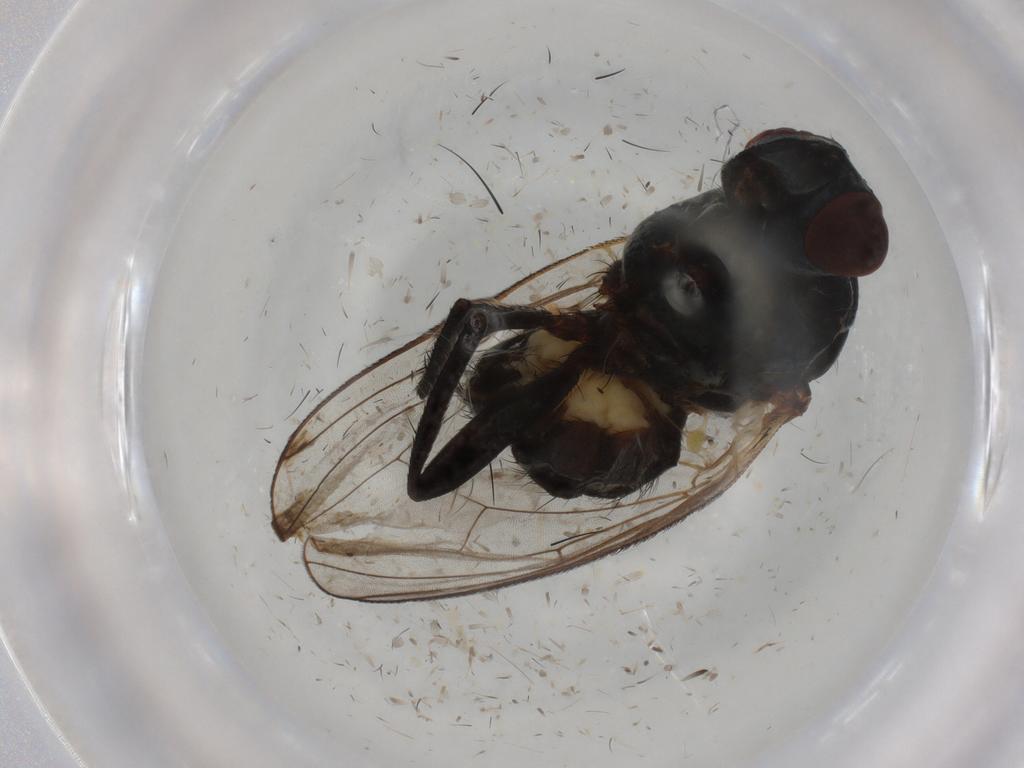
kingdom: Animalia
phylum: Arthropoda
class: Insecta
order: Diptera
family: Anthomyiidae
